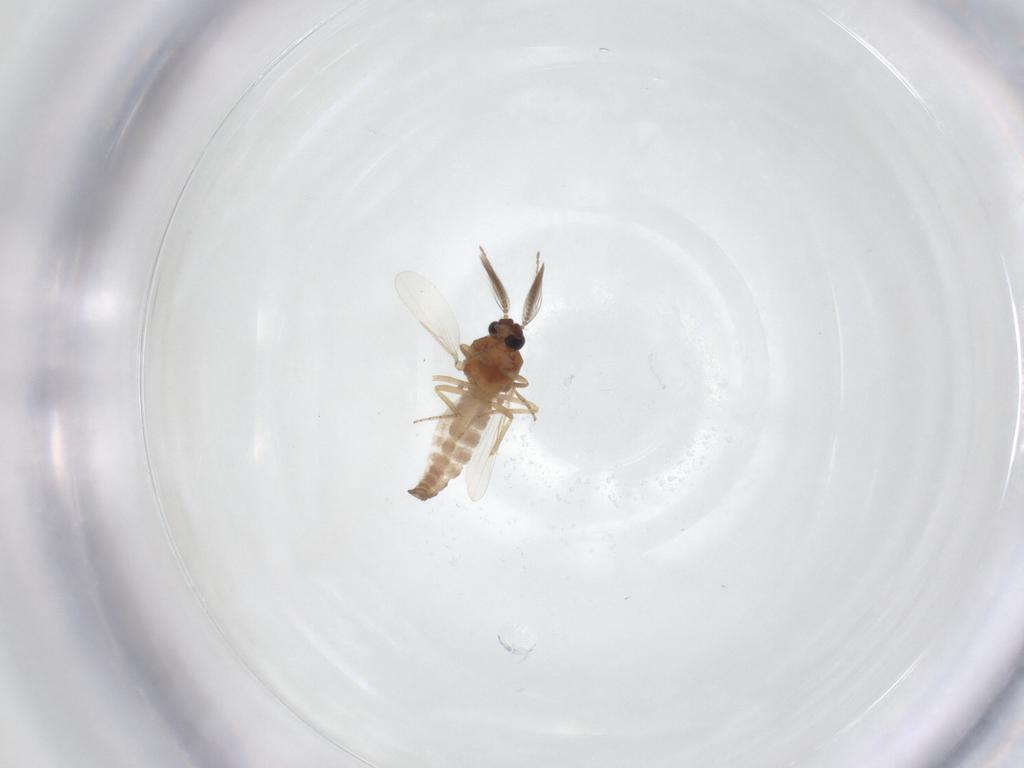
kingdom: Animalia
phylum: Arthropoda
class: Insecta
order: Diptera
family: Ceratopogonidae
